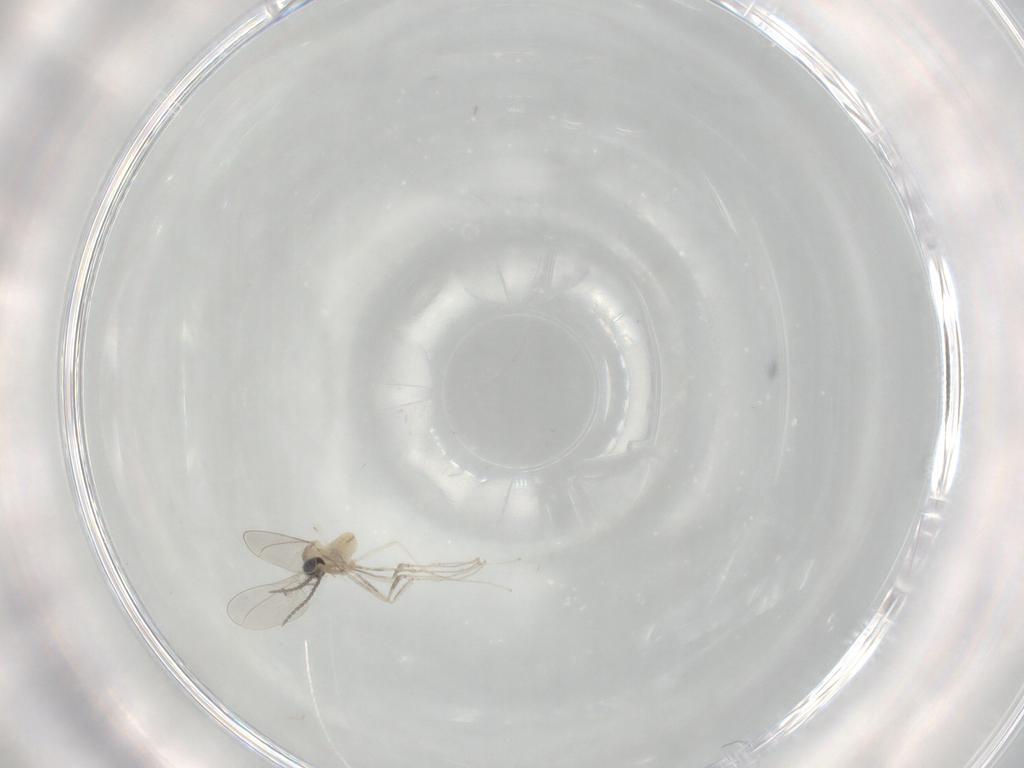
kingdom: Animalia
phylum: Arthropoda
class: Insecta
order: Diptera
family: Cecidomyiidae
